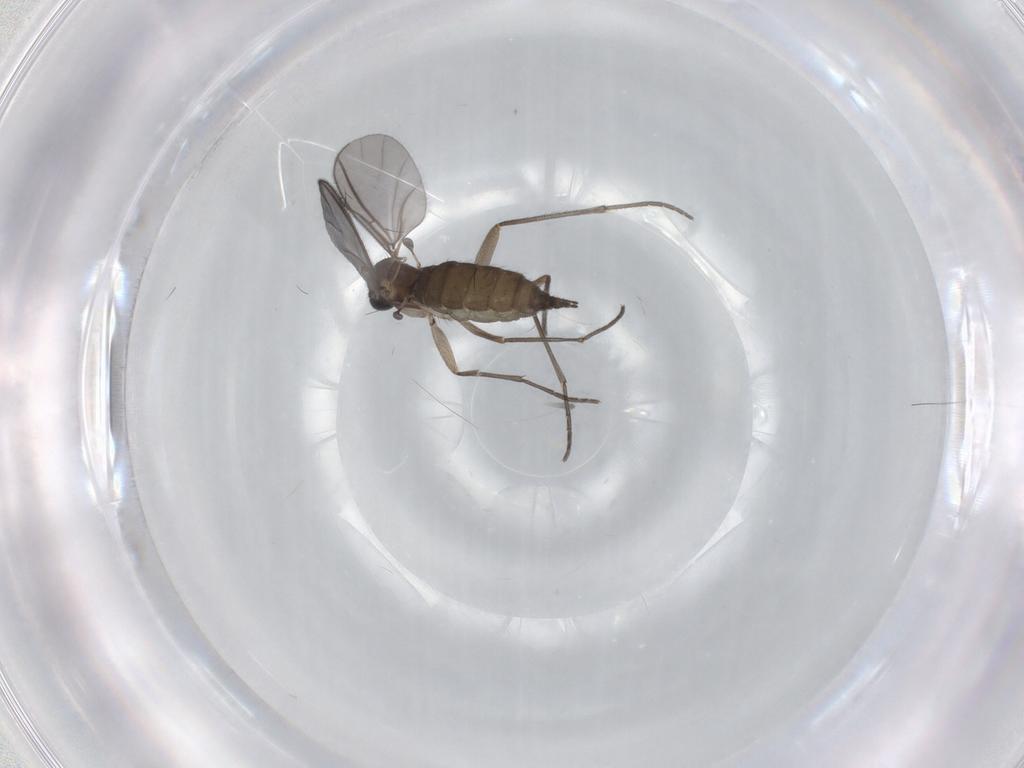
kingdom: Animalia
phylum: Arthropoda
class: Insecta
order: Diptera
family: Sciaridae
